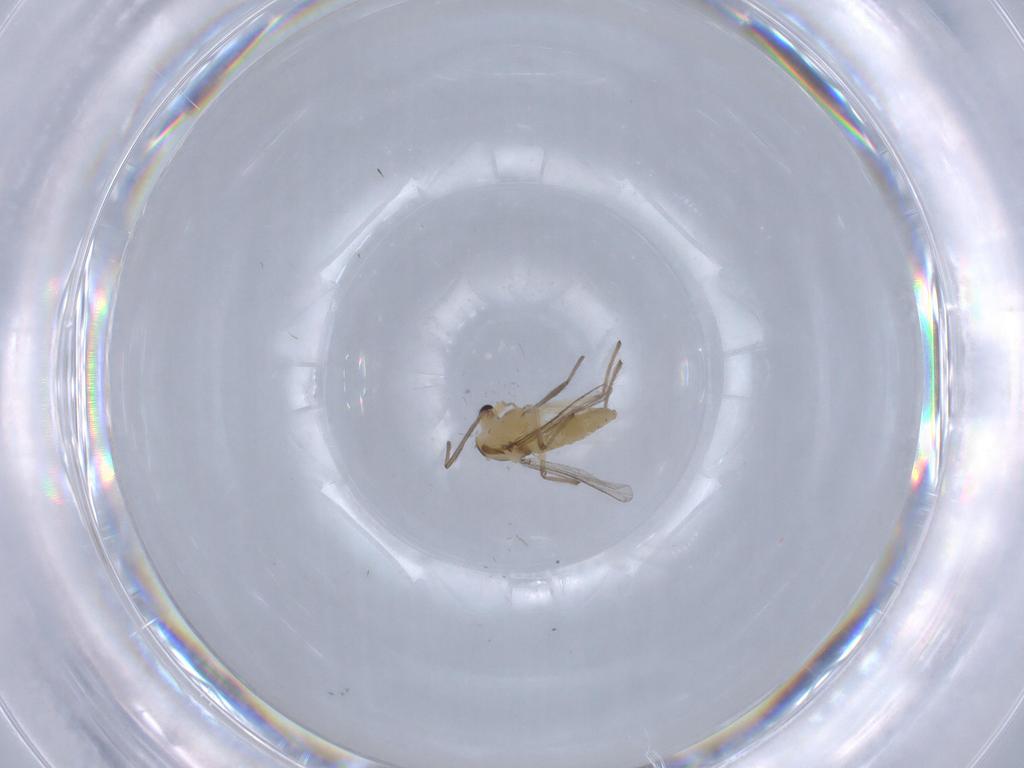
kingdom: Animalia
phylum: Arthropoda
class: Insecta
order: Diptera
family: Chironomidae
